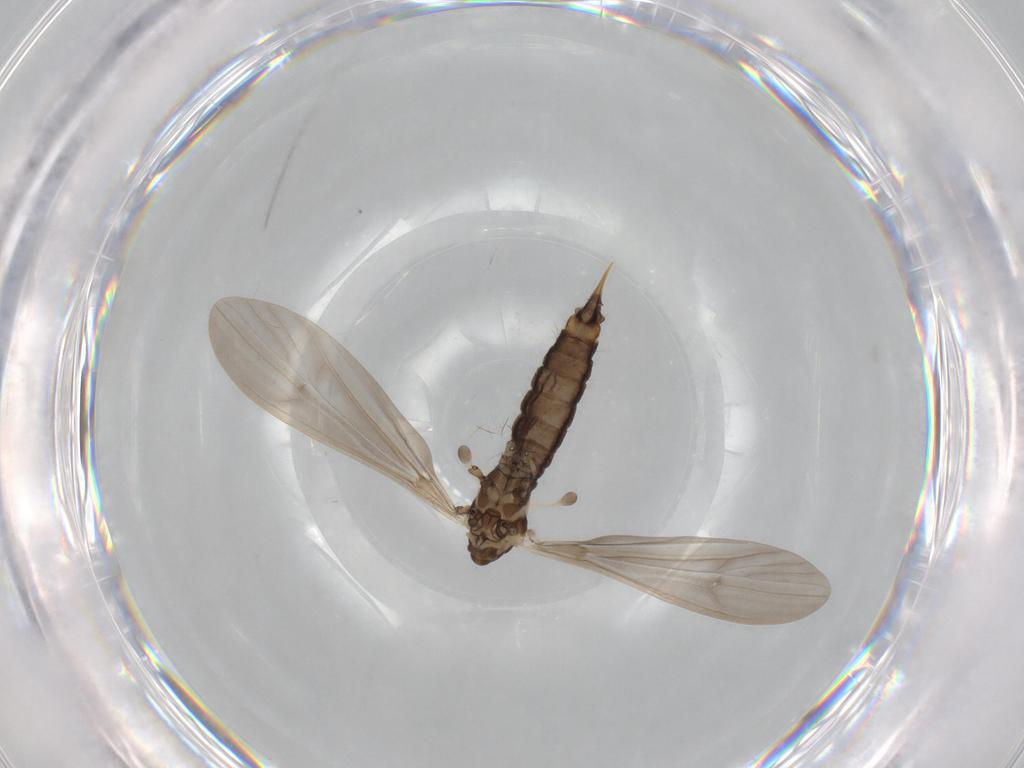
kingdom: Animalia
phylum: Arthropoda
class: Insecta
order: Diptera
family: Limoniidae
